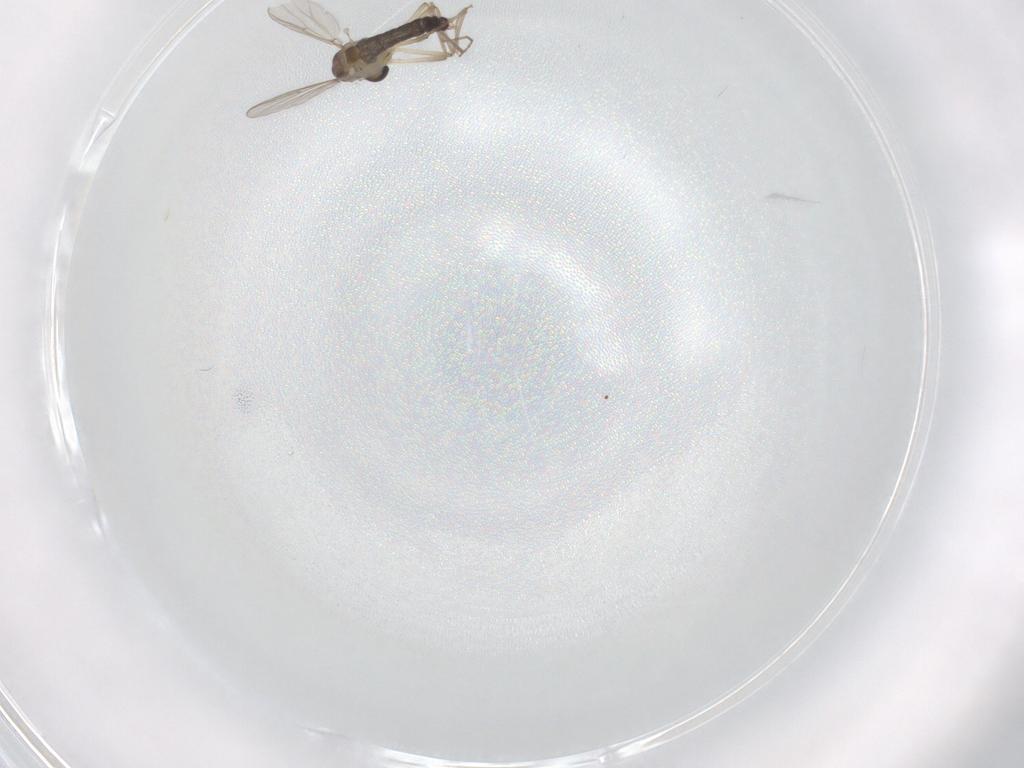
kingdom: Animalia
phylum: Arthropoda
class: Insecta
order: Diptera
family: Chironomidae
